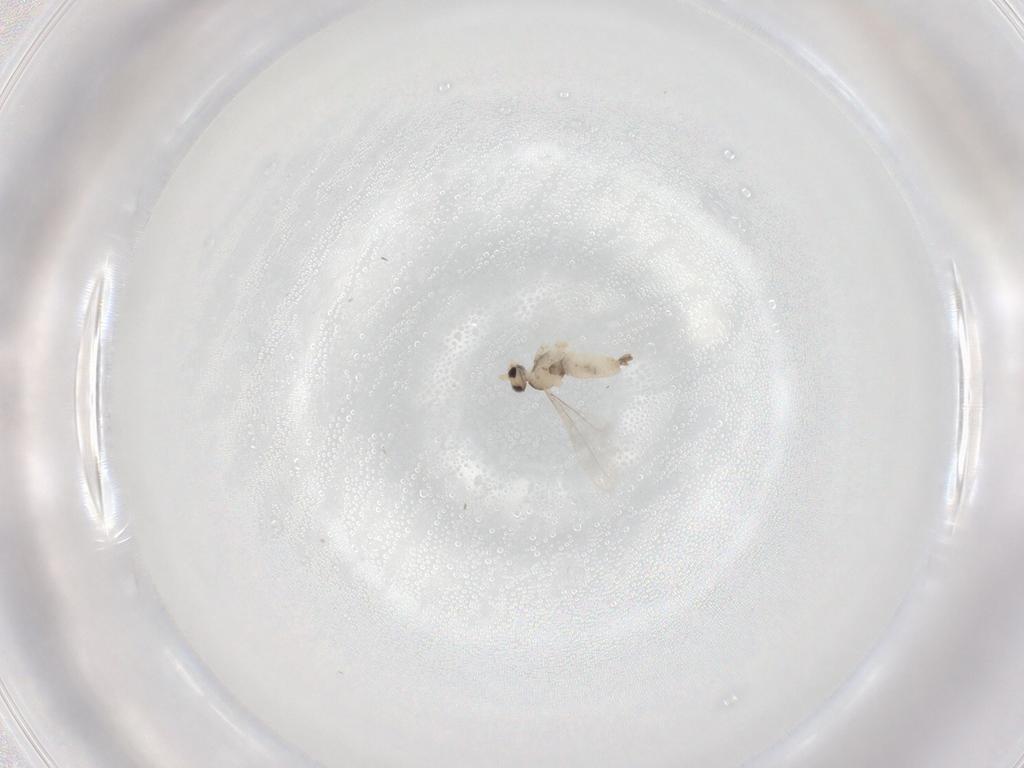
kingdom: Animalia
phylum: Arthropoda
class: Insecta
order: Diptera
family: Cecidomyiidae
